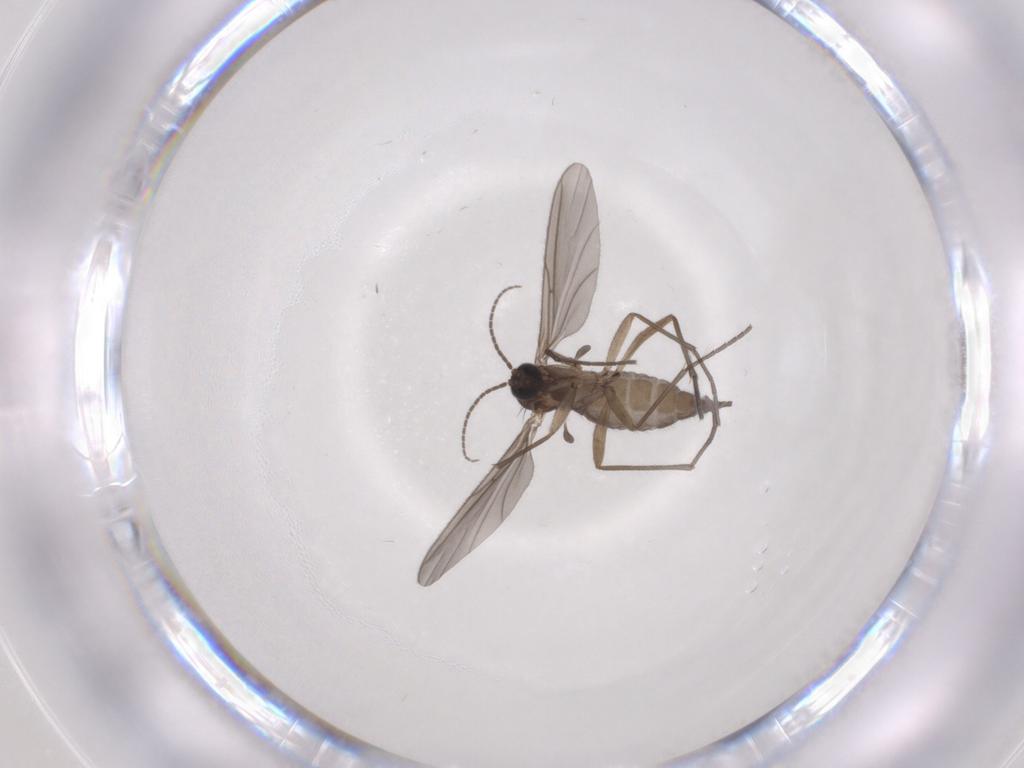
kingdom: Animalia
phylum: Arthropoda
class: Insecta
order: Diptera
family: Sciaridae
